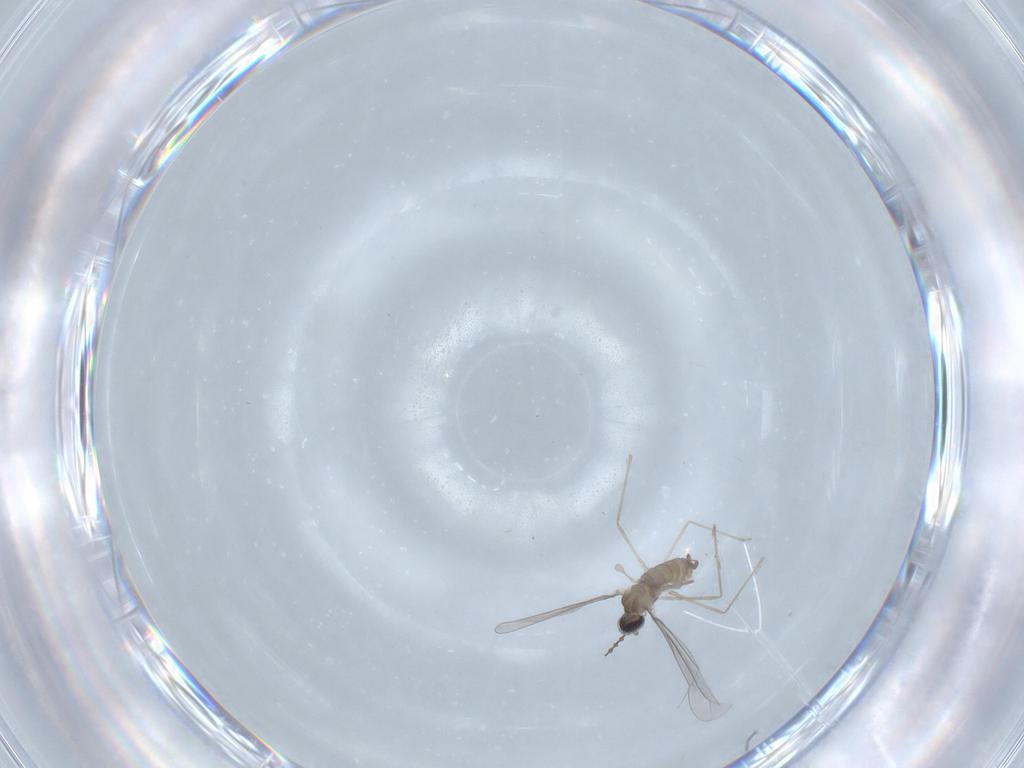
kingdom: Animalia
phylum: Arthropoda
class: Insecta
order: Diptera
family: Cecidomyiidae
